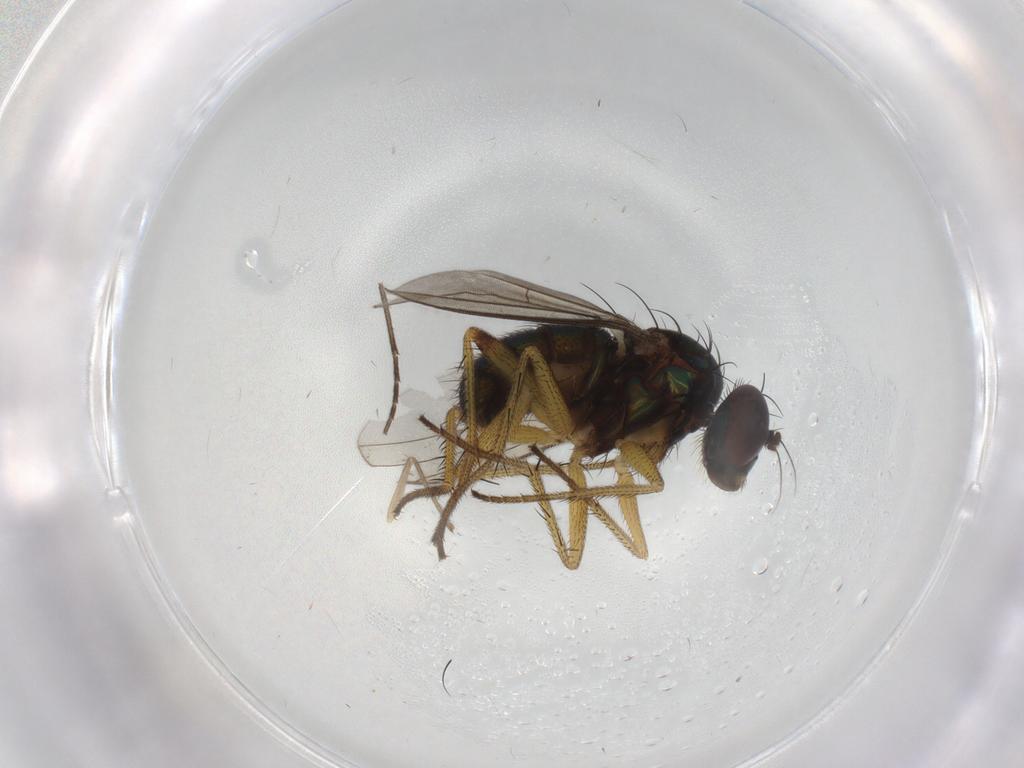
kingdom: Animalia
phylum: Arthropoda
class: Insecta
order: Diptera
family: Dolichopodidae
